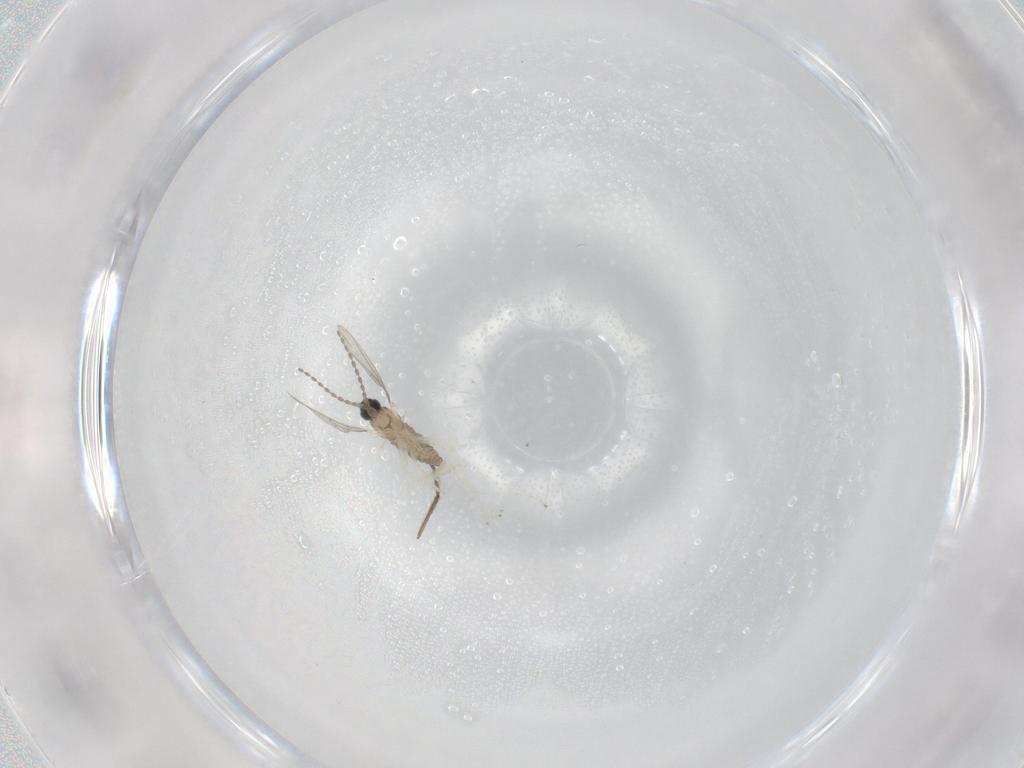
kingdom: Animalia
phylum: Arthropoda
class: Insecta
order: Diptera
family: Cecidomyiidae
